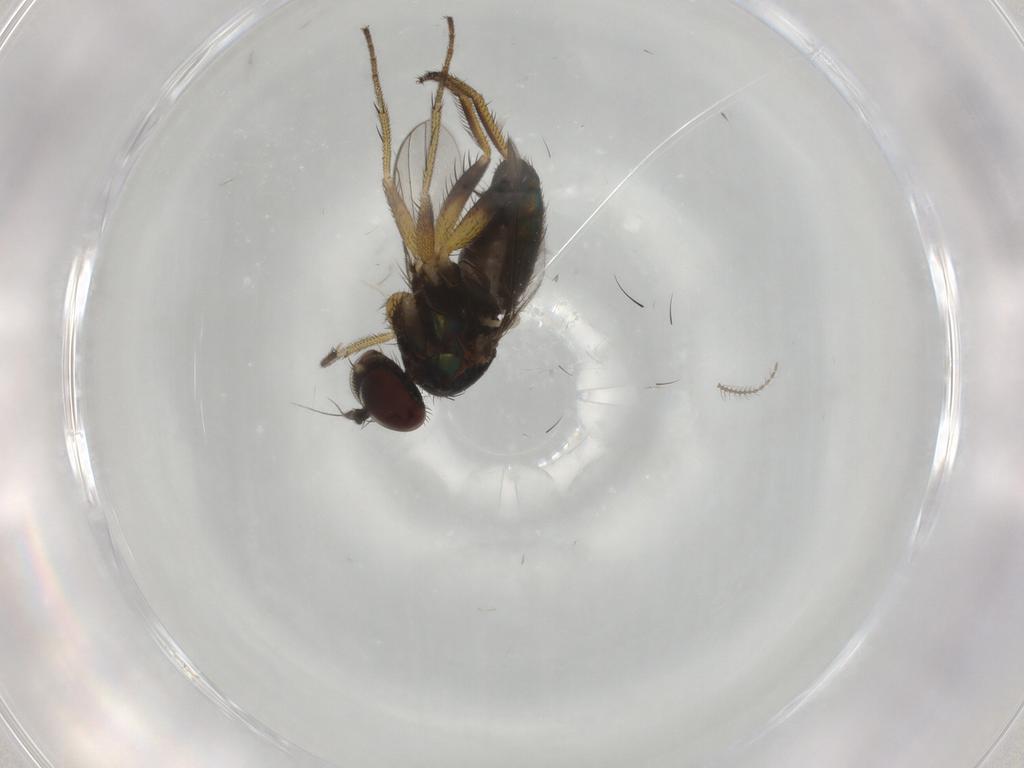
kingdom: Animalia
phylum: Arthropoda
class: Insecta
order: Diptera
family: Dolichopodidae
